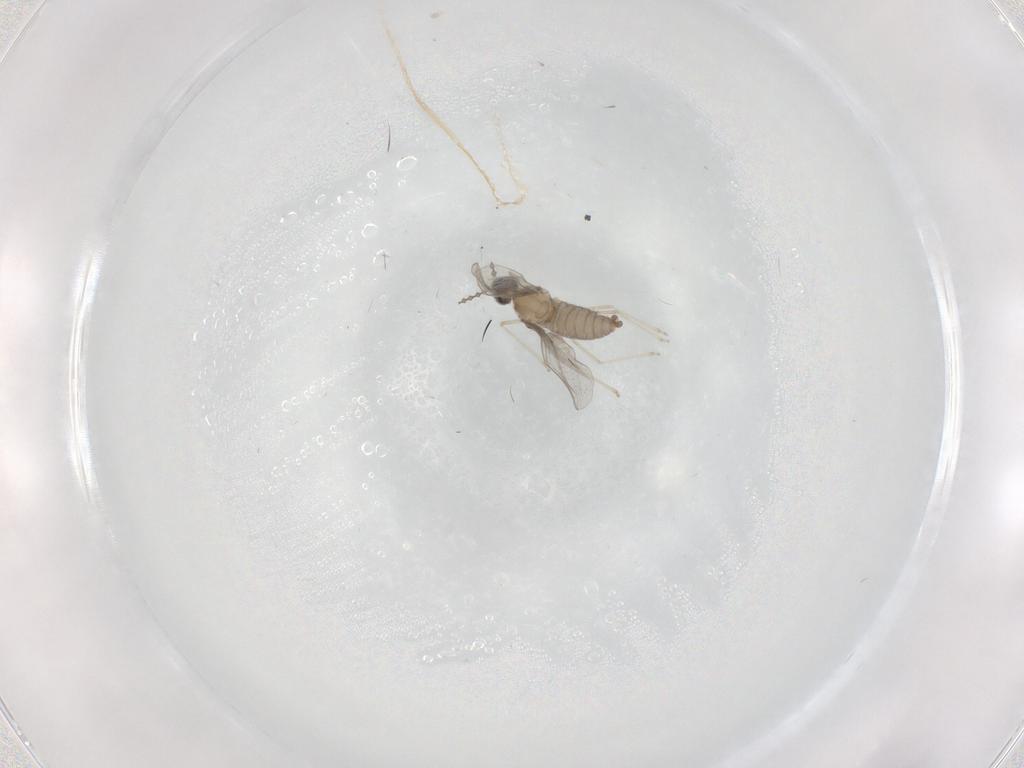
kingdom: Animalia
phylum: Arthropoda
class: Insecta
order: Diptera
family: Cecidomyiidae
